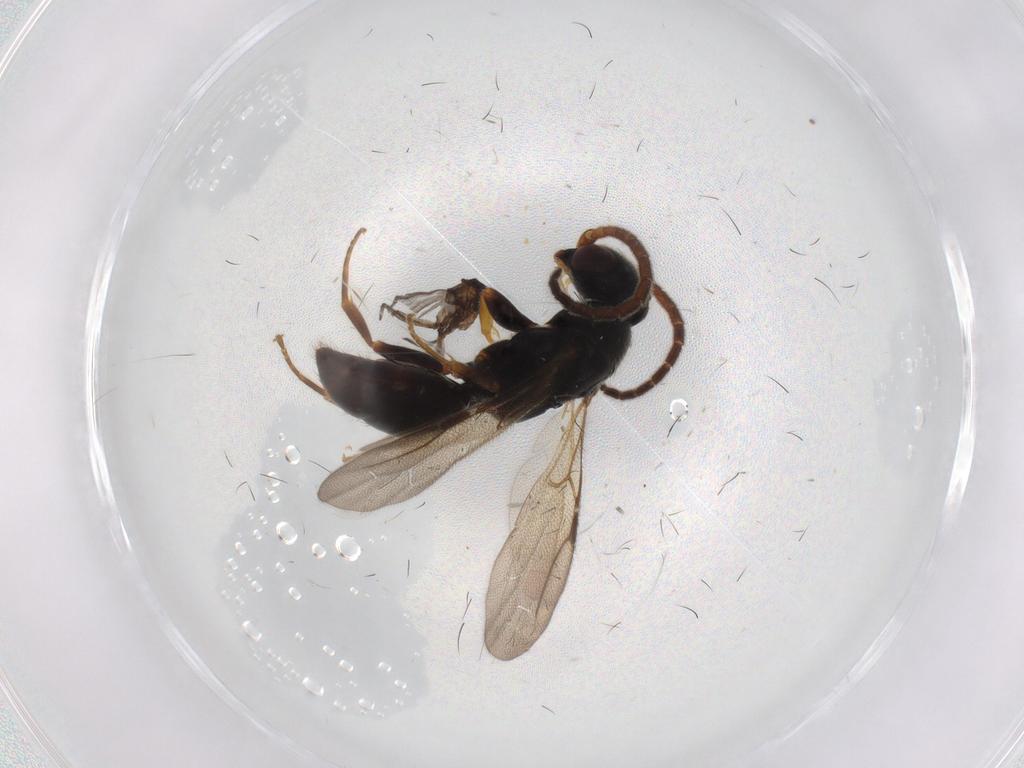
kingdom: Animalia
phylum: Arthropoda
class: Insecta
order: Hymenoptera
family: Bethylidae
